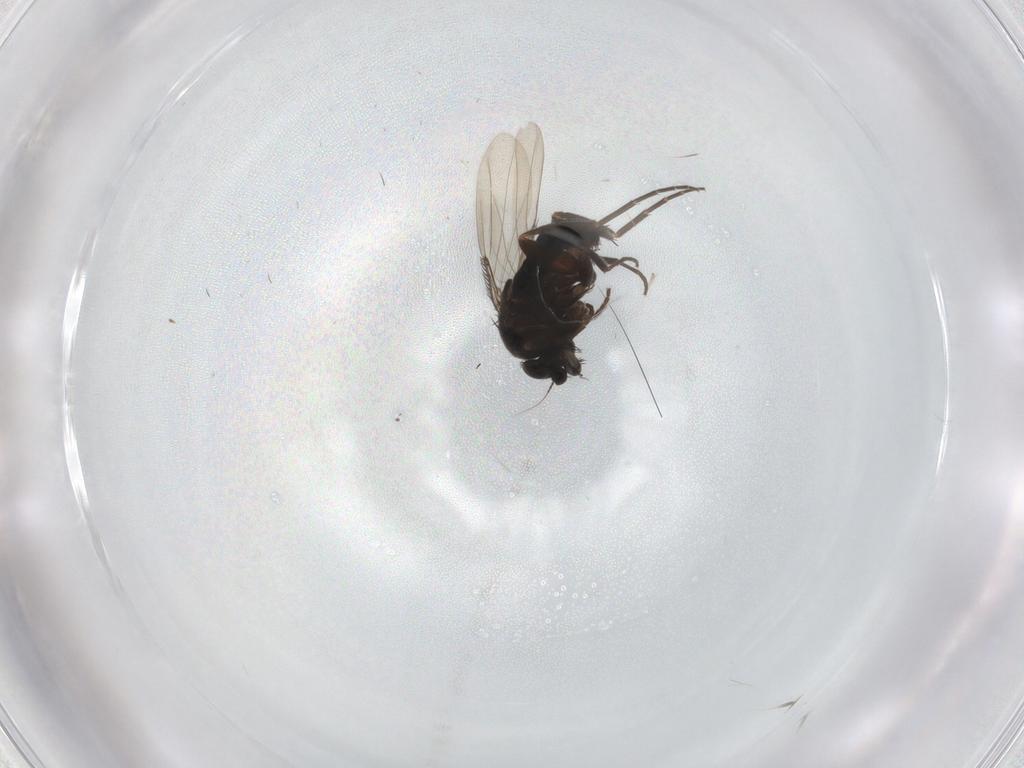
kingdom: Animalia
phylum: Arthropoda
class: Insecta
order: Diptera
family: Cecidomyiidae
